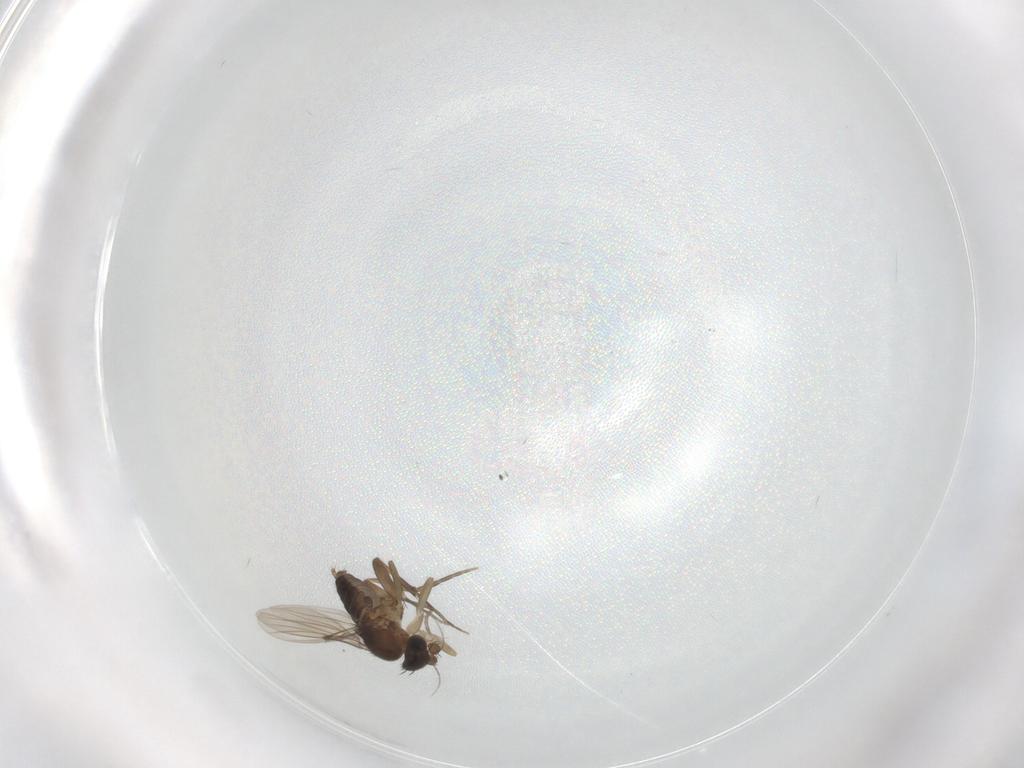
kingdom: Animalia
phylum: Arthropoda
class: Insecta
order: Diptera
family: Phoridae
